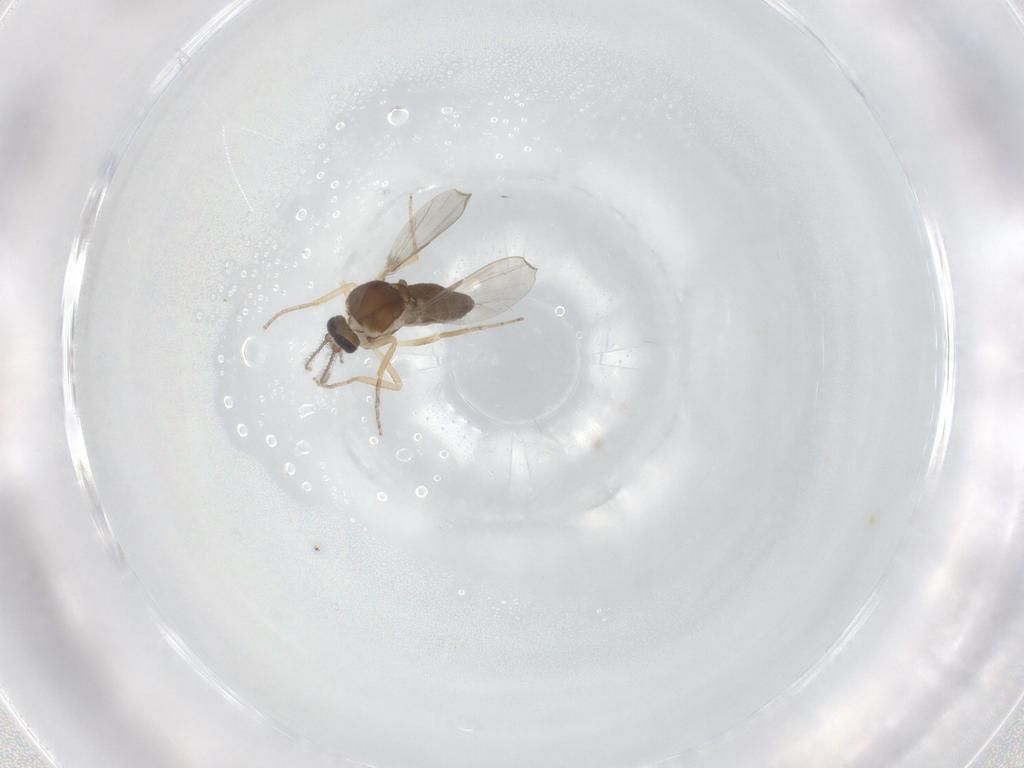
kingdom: Animalia
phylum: Arthropoda
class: Insecta
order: Diptera
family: Ceratopogonidae
